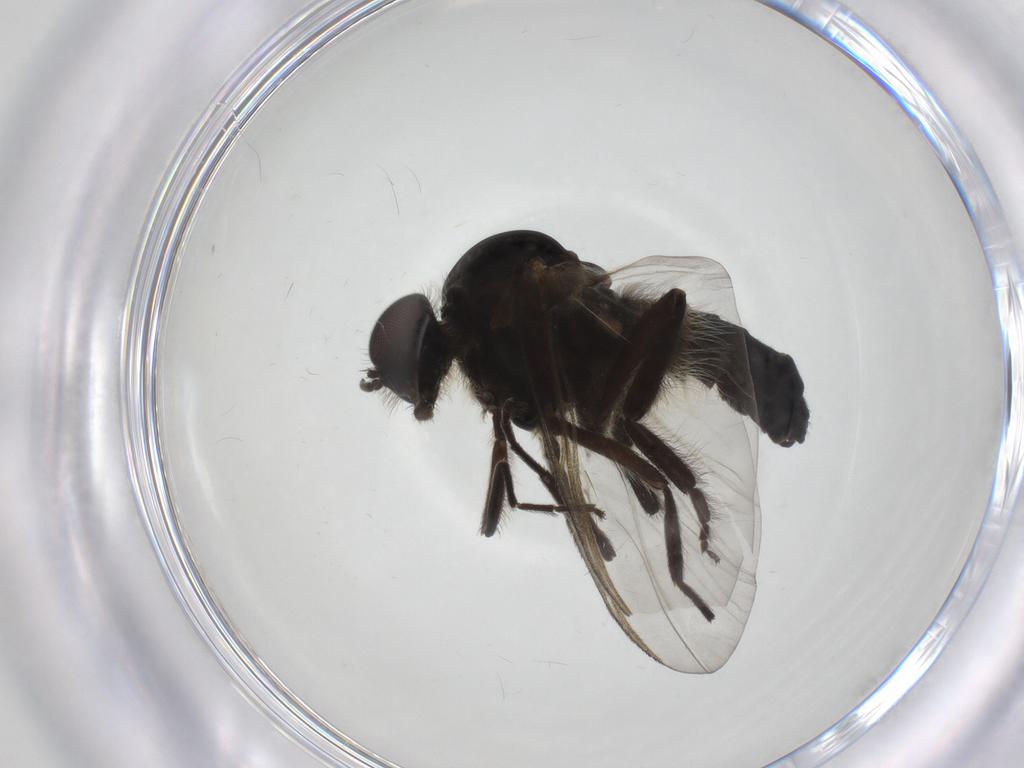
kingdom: Animalia
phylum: Arthropoda
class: Insecta
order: Diptera
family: Simuliidae
